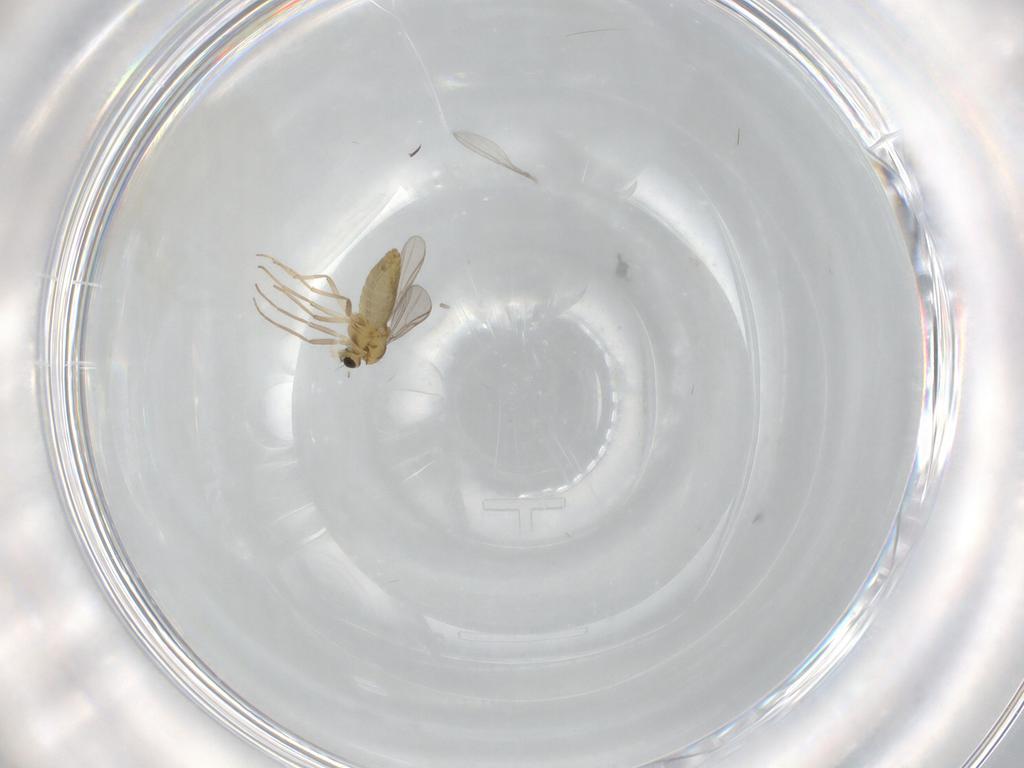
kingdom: Animalia
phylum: Arthropoda
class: Insecta
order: Diptera
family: Chironomidae
